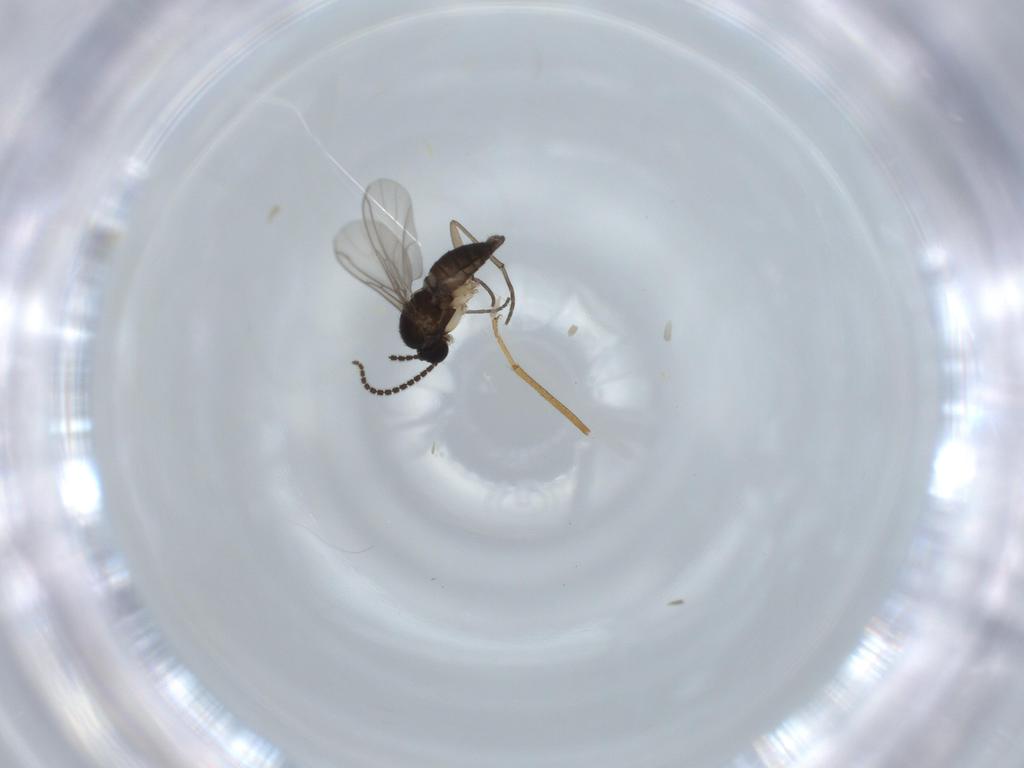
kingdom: Animalia
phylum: Arthropoda
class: Insecta
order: Diptera
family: Sciaridae
